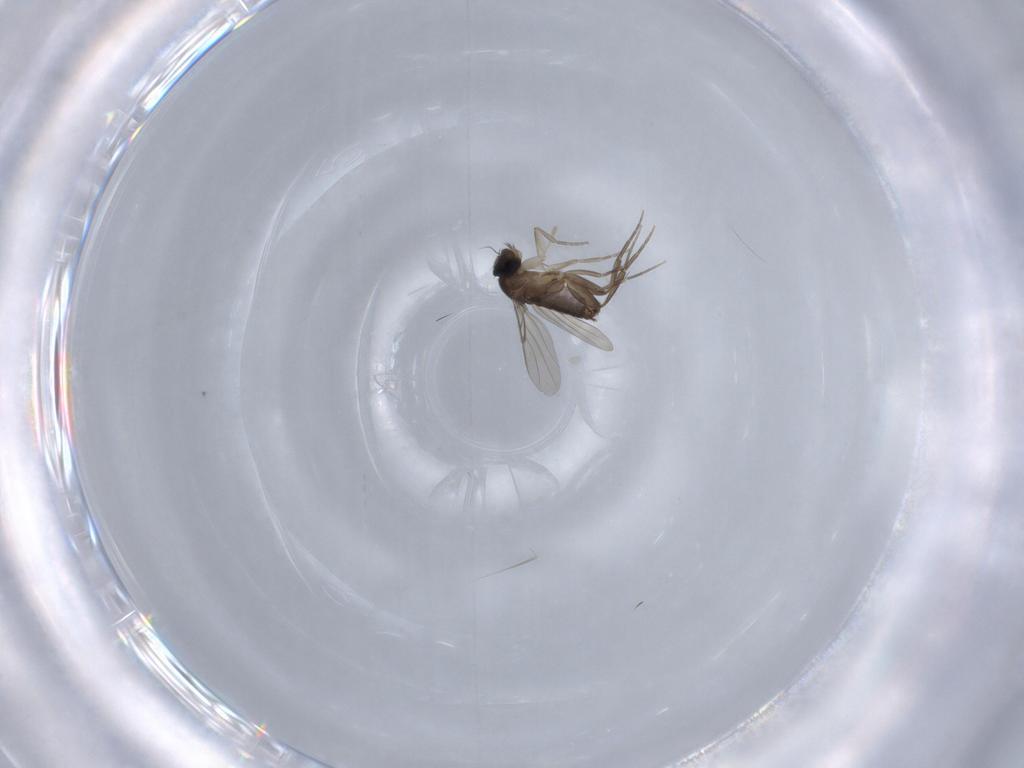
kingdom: Animalia
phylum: Arthropoda
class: Insecta
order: Diptera
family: Phoridae
